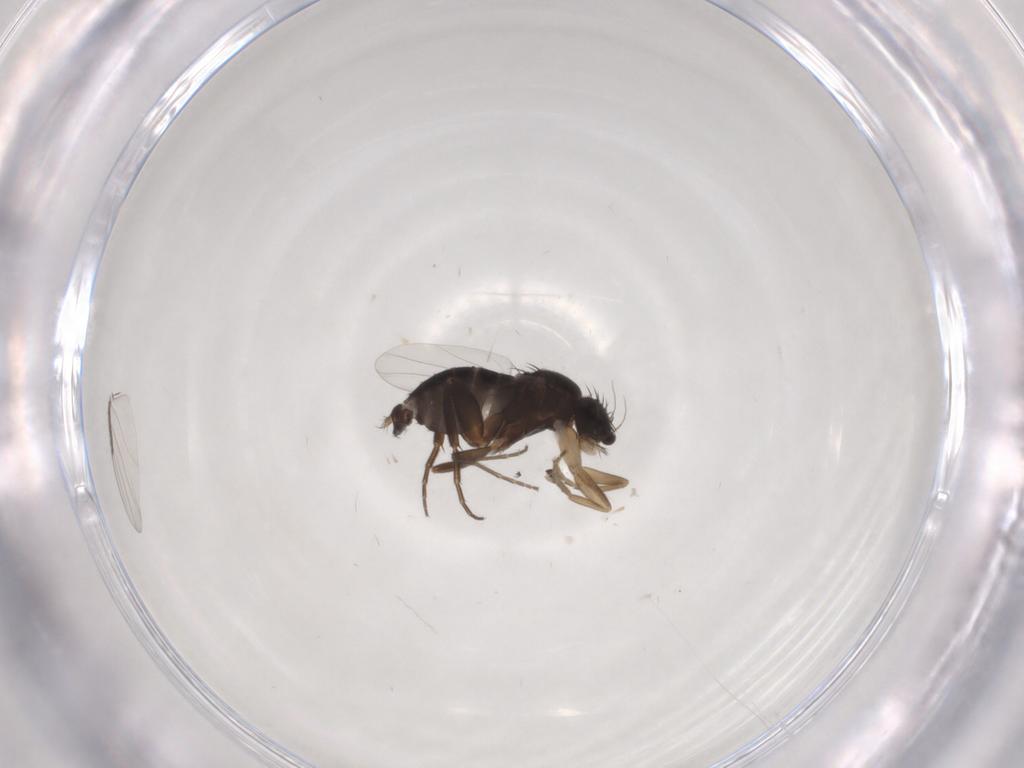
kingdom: Animalia
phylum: Arthropoda
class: Insecta
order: Diptera
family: Phoridae
